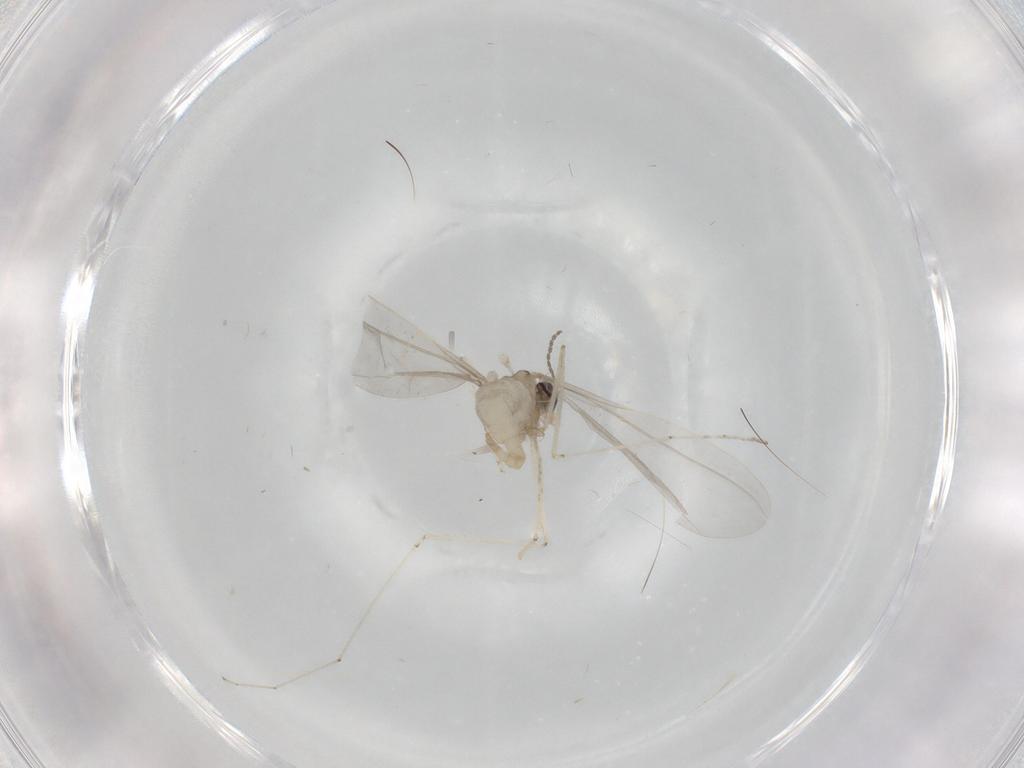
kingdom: Animalia
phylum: Arthropoda
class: Insecta
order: Diptera
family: Cecidomyiidae
